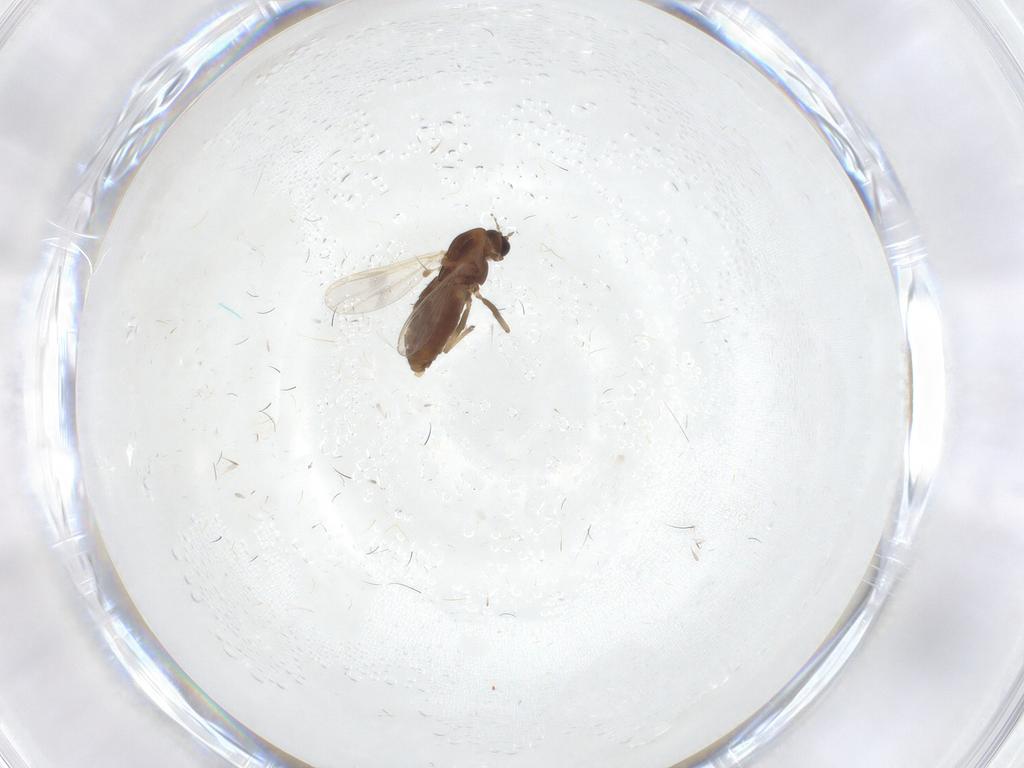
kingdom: Animalia
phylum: Arthropoda
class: Insecta
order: Diptera
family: Chironomidae
